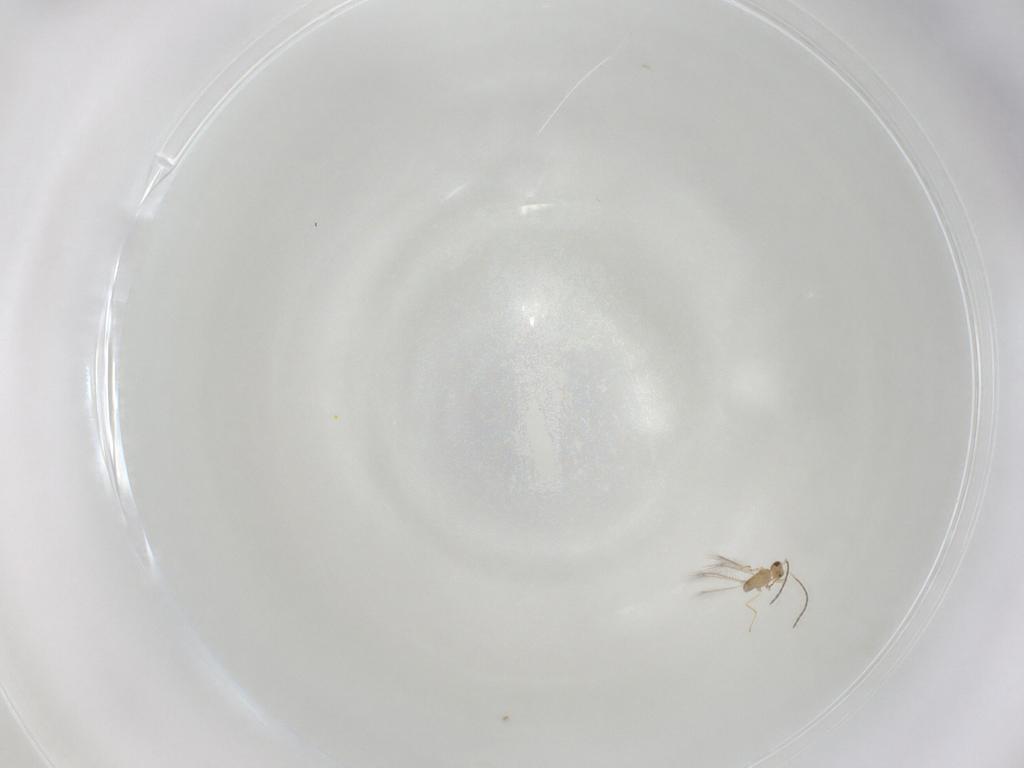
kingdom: Animalia
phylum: Arthropoda
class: Insecta
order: Hymenoptera
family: Mymaridae
